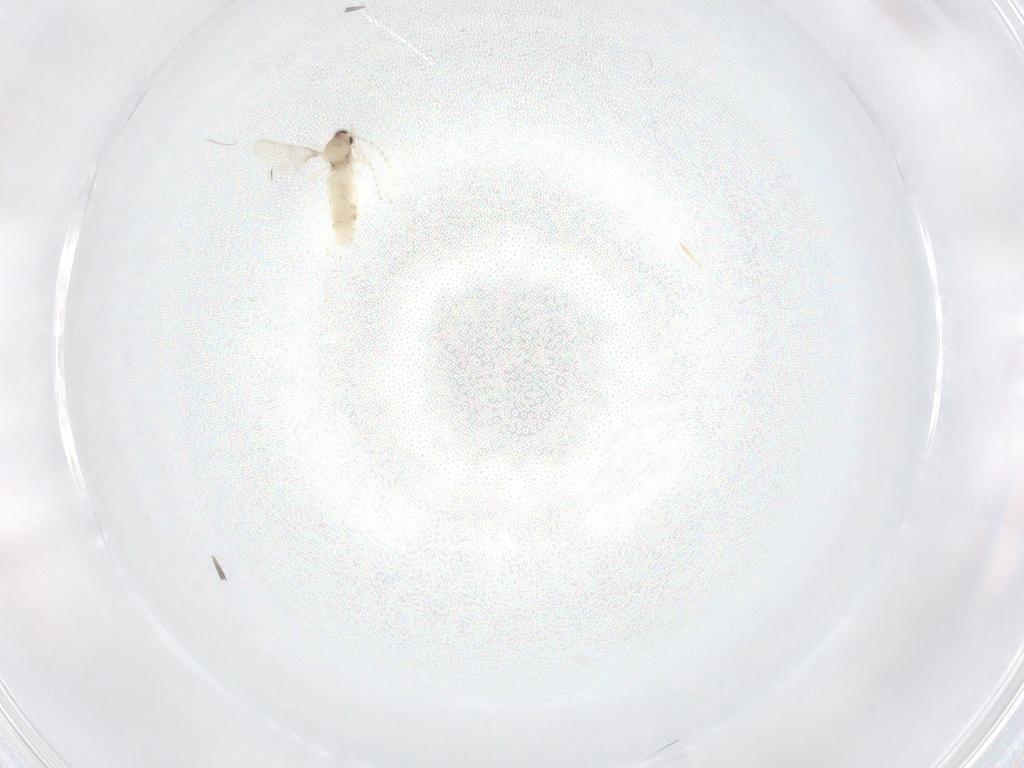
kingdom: Animalia
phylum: Arthropoda
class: Insecta
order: Diptera
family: Cecidomyiidae
